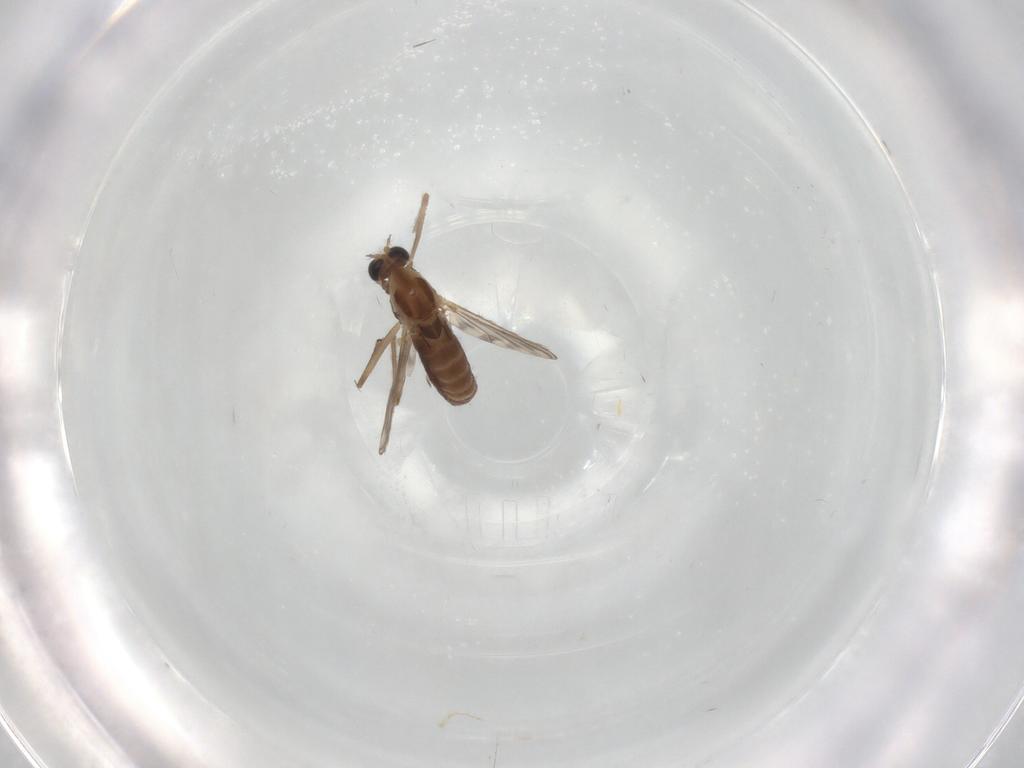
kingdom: Animalia
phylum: Arthropoda
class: Insecta
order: Diptera
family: Chironomidae
